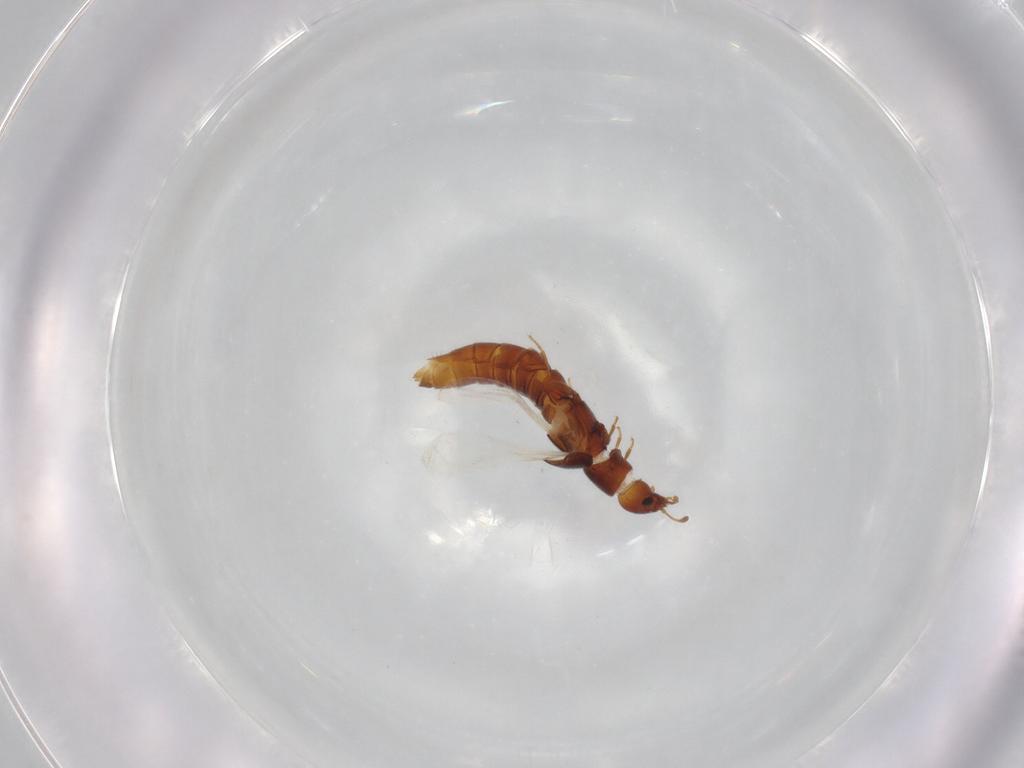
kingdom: Animalia
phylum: Arthropoda
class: Insecta
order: Coleoptera
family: Staphylinidae
